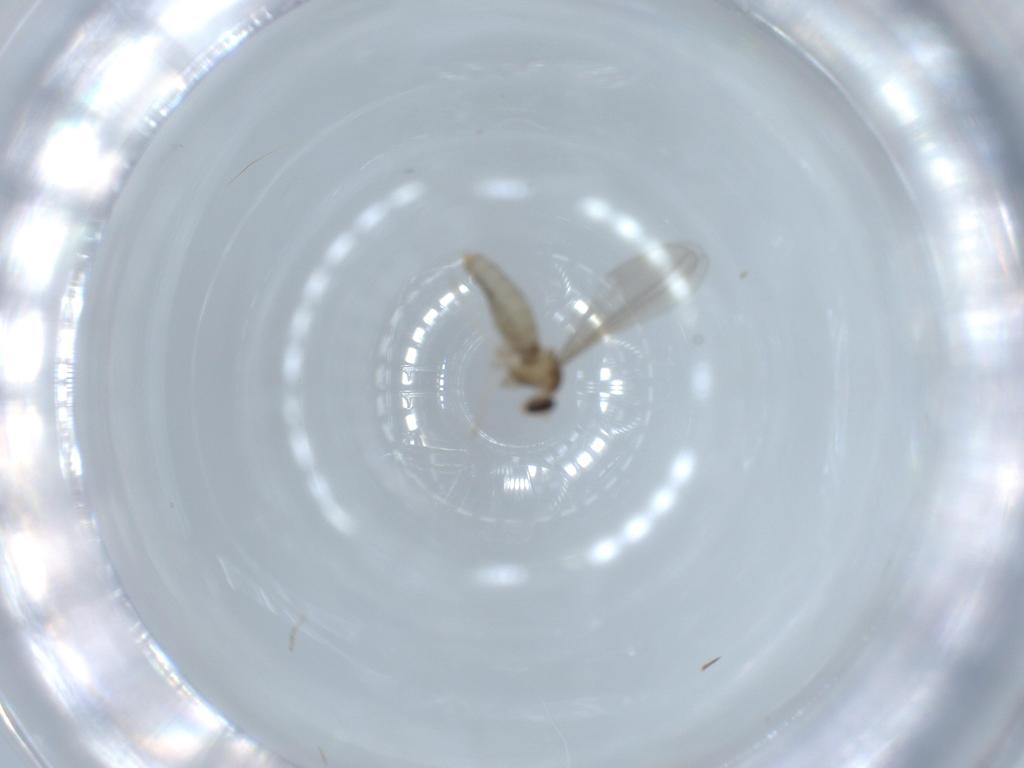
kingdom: Animalia
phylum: Arthropoda
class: Insecta
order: Diptera
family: Cecidomyiidae
